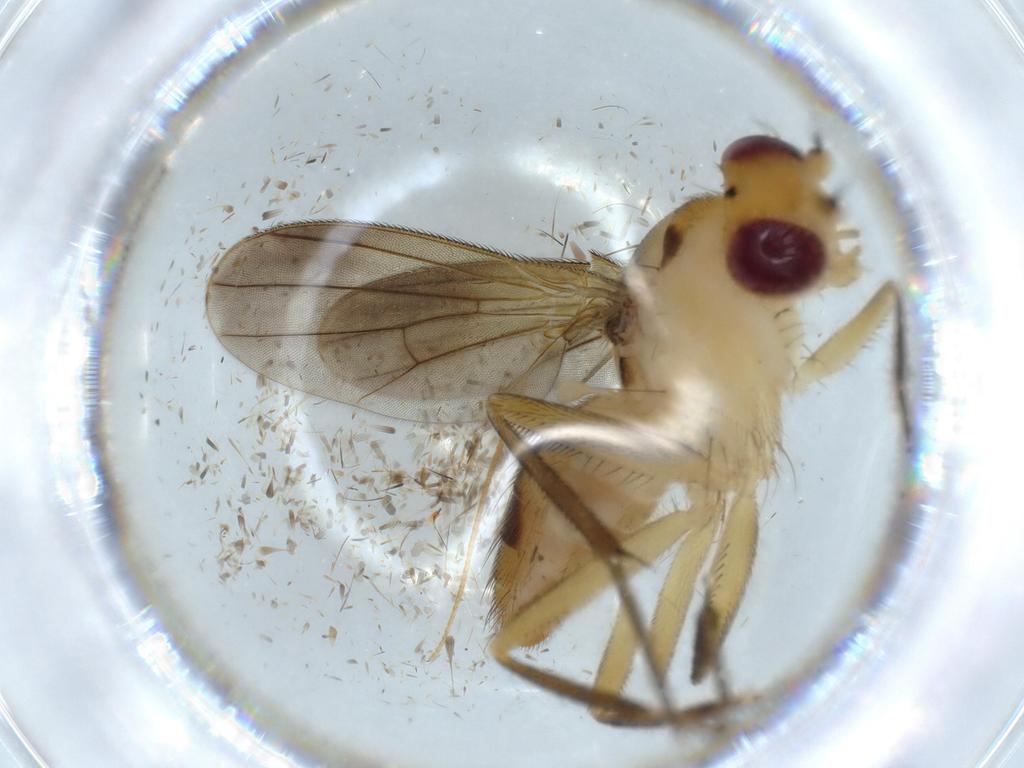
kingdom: Animalia
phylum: Arthropoda
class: Insecta
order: Diptera
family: Clusiidae
